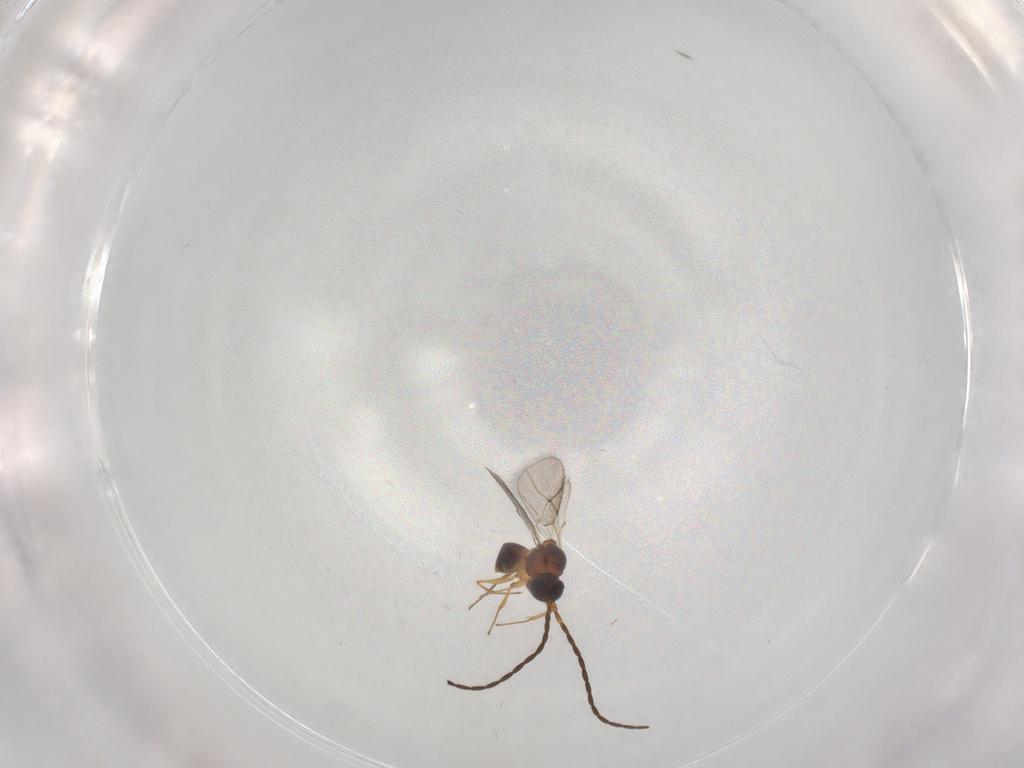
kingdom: Animalia
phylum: Arthropoda
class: Insecta
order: Hymenoptera
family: Figitidae
